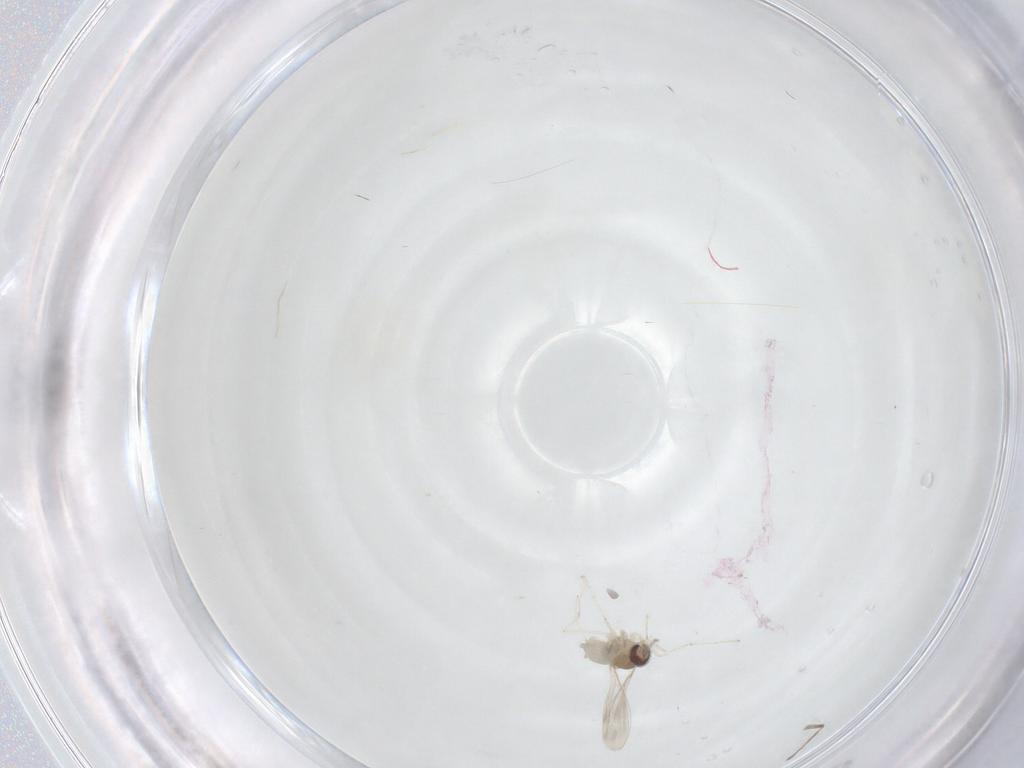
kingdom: Animalia
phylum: Arthropoda
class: Insecta
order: Diptera
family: Cecidomyiidae
